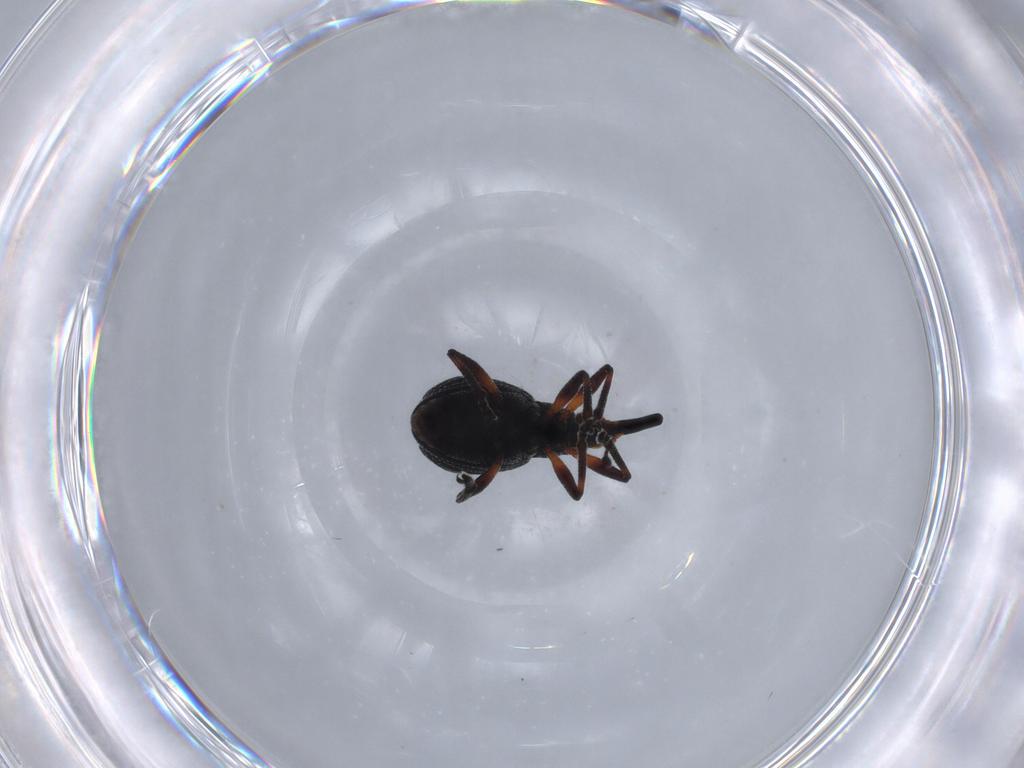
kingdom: Animalia
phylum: Arthropoda
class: Insecta
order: Coleoptera
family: Brentidae
